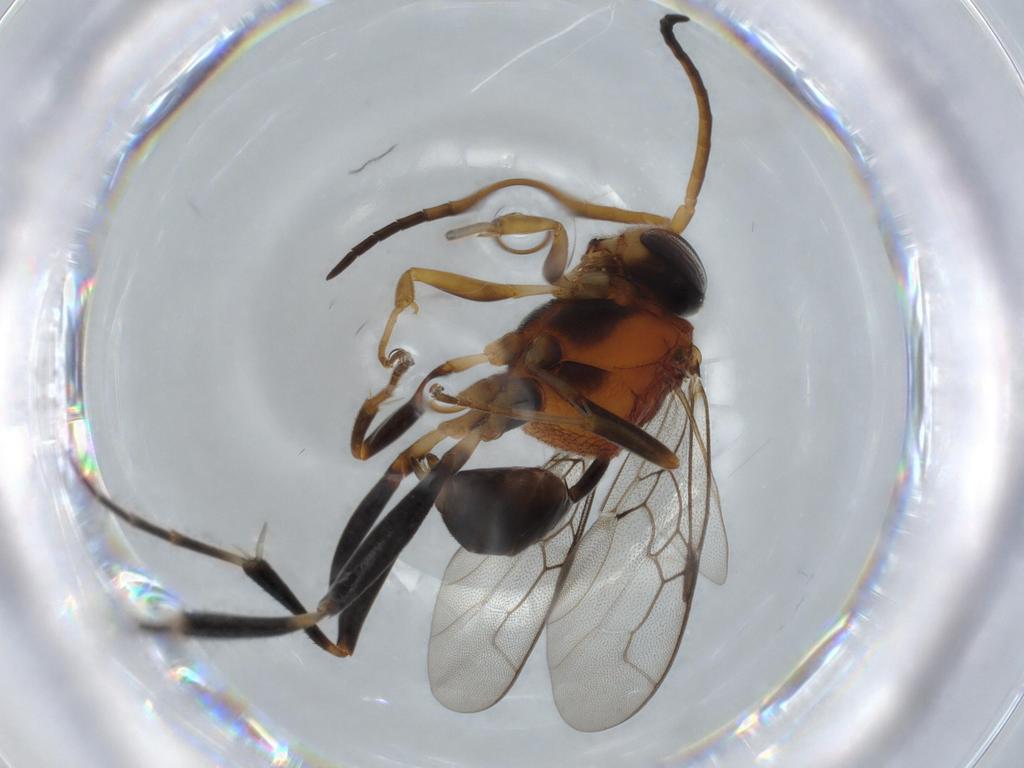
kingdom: Animalia
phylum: Arthropoda
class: Insecta
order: Hymenoptera
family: Evaniidae
